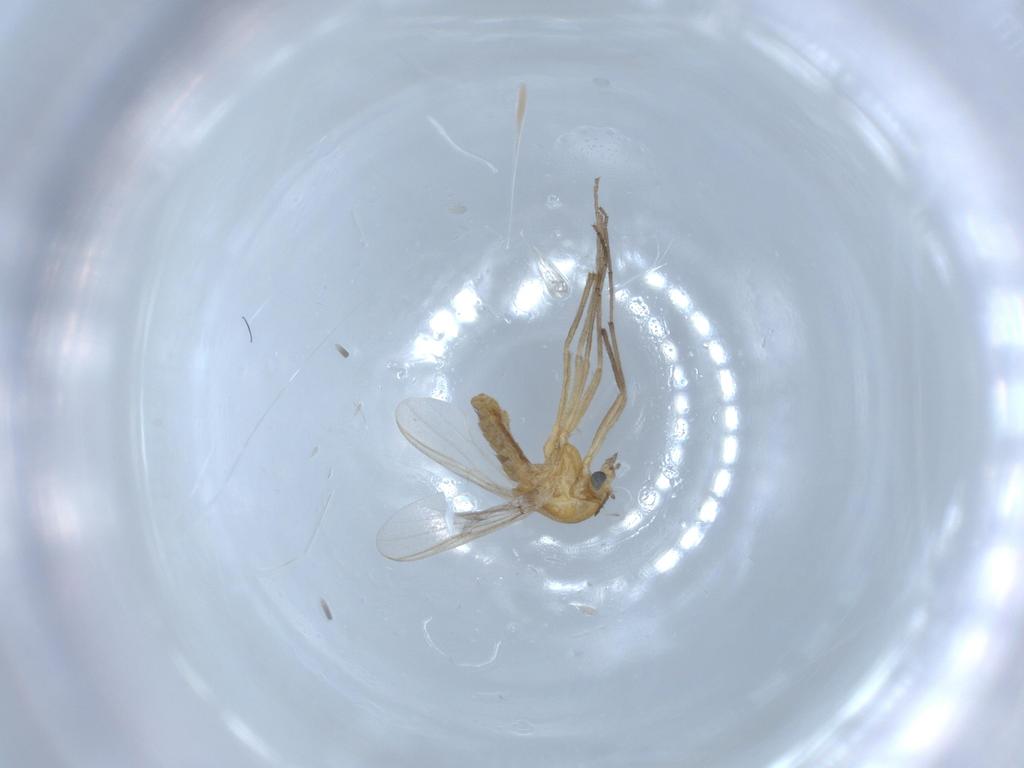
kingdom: Animalia
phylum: Arthropoda
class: Insecta
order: Diptera
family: Chironomidae
